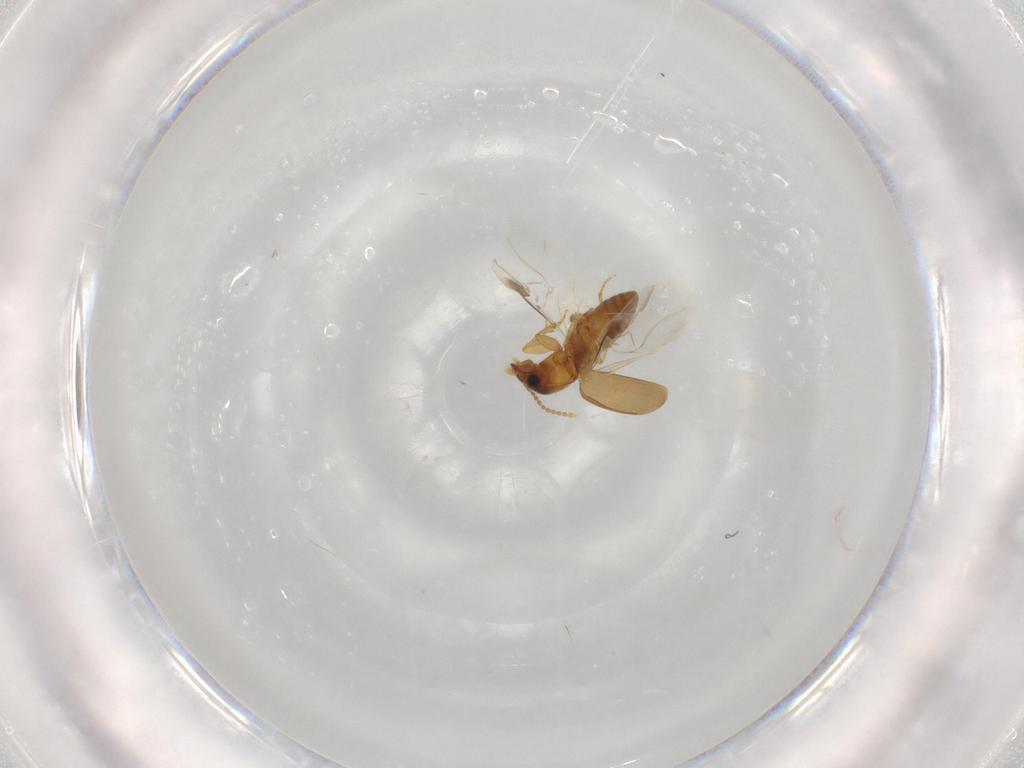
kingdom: Animalia
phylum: Arthropoda
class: Insecta
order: Coleoptera
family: Carabidae
